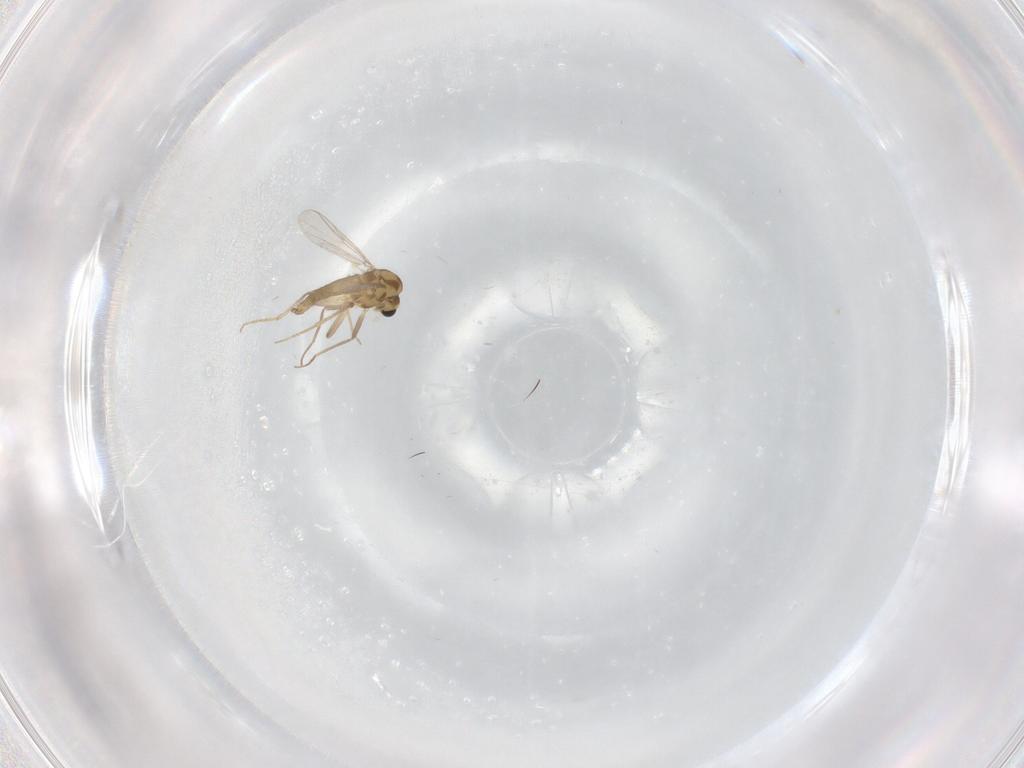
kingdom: Animalia
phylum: Arthropoda
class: Insecta
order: Diptera
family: Chironomidae
